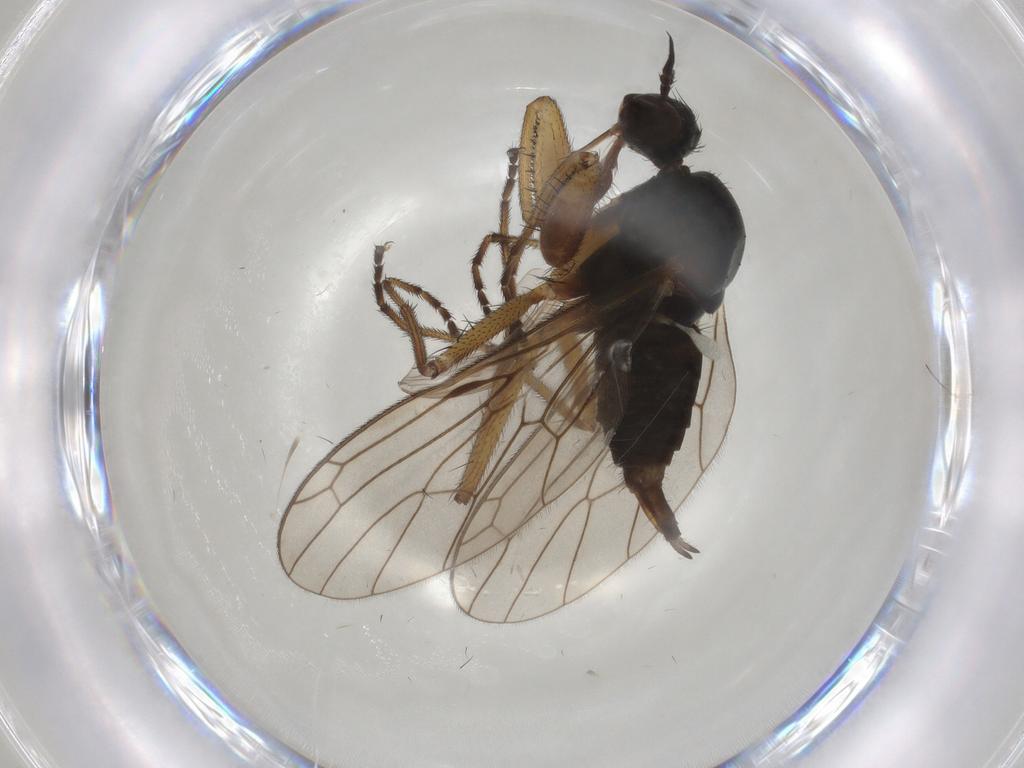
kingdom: Animalia
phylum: Arthropoda
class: Insecta
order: Diptera
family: Empididae
